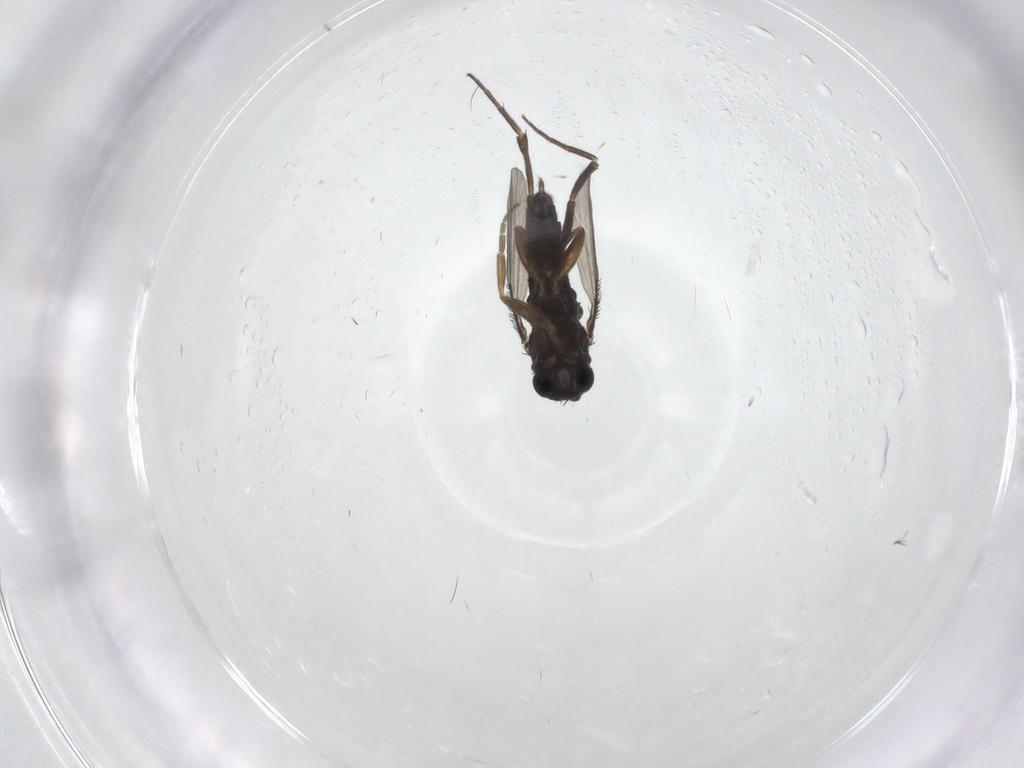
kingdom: Animalia
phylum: Arthropoda
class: Insecta
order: Diptera
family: Phoridae
